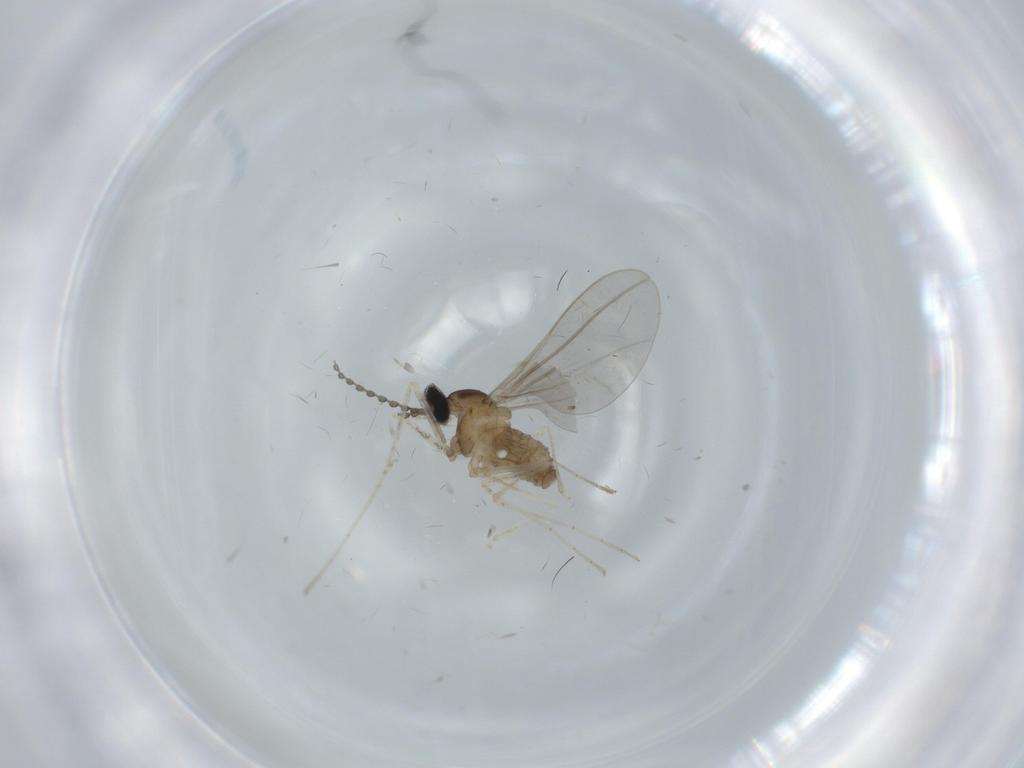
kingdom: Animalia
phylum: Arthropoda
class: Insecta
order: Diptera
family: Cecidomyiidae
